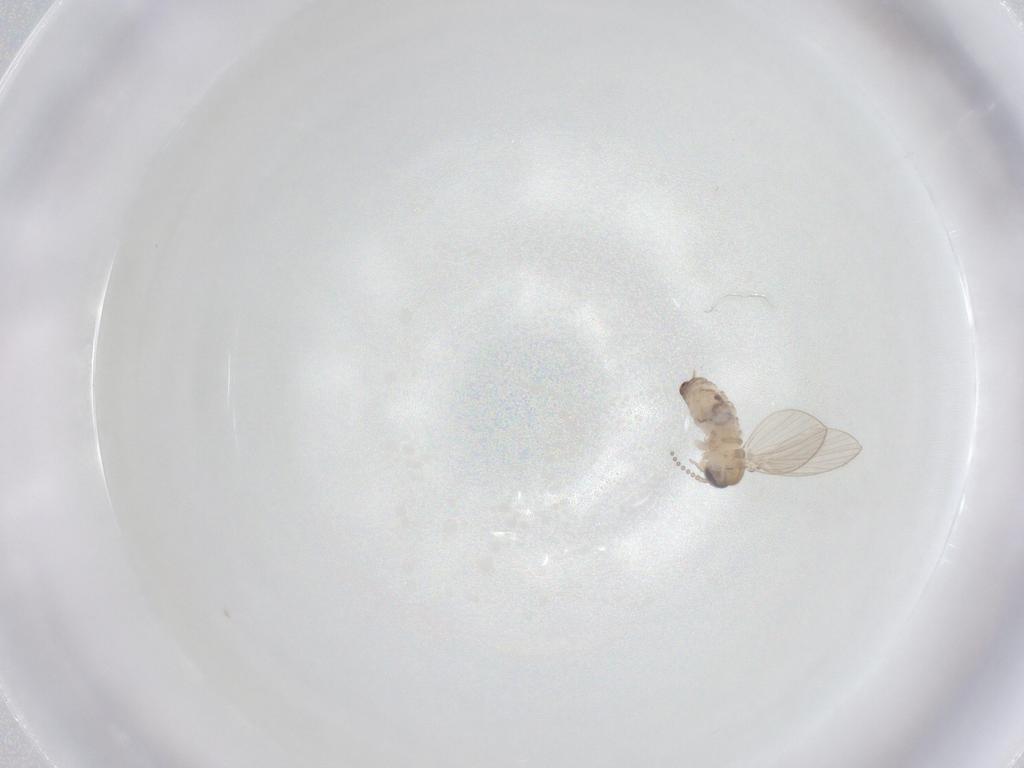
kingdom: Animalia
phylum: Arthropoda
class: Insecta
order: Diptera
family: Psychodidae
